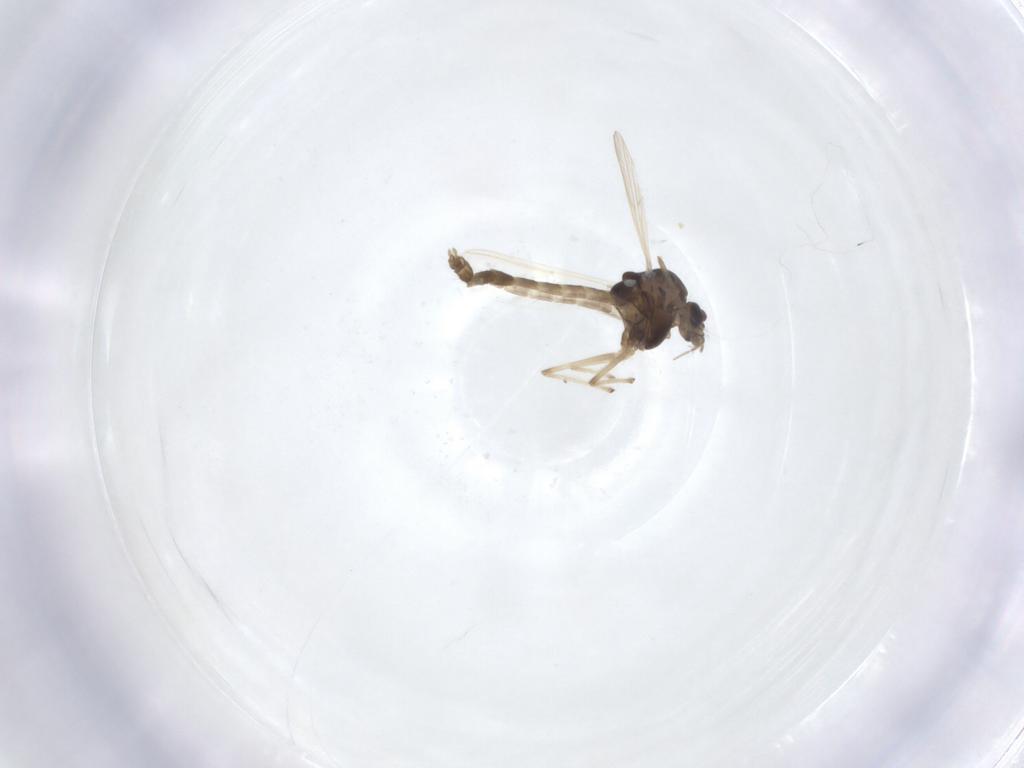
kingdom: Animalia
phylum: Arthropoda
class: Insecta
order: Diptera
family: Chironomidae
